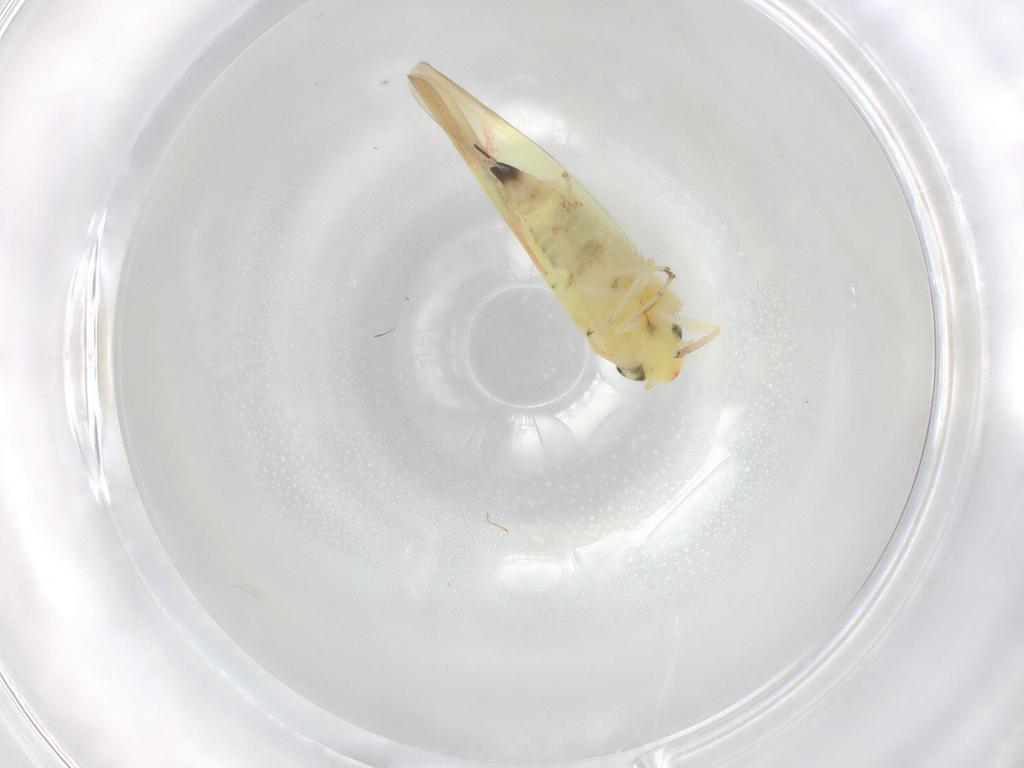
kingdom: Animalia
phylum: Arthropoda
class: Insecta
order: Hemiptera
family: Cicadellidae
